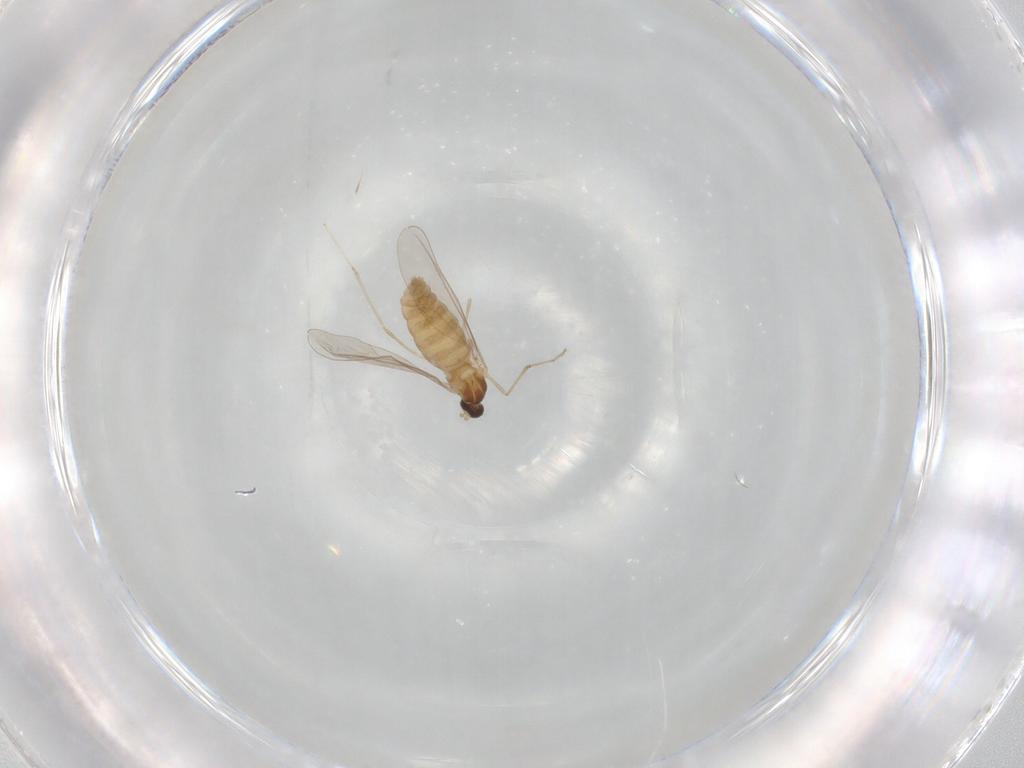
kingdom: Animalia
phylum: Arthropoda
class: Insecta
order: Diptera
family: Cecidomyiidae
